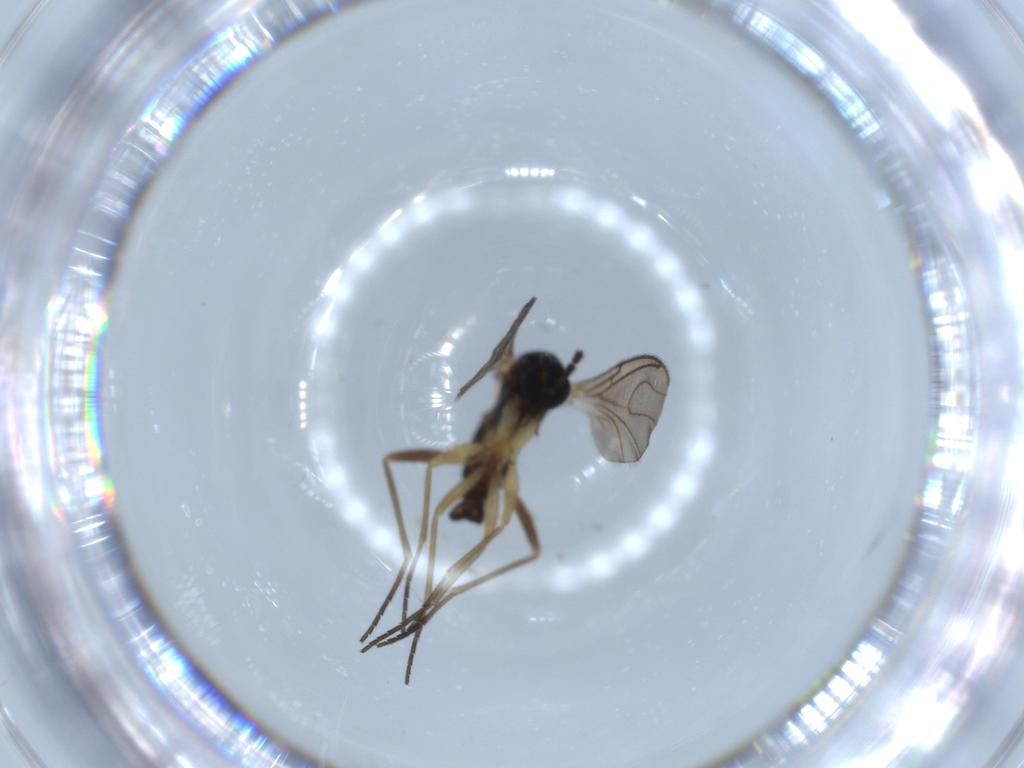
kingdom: Animalia
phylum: Arthropoda
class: Insecta
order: Diptera
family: Sciaridae
